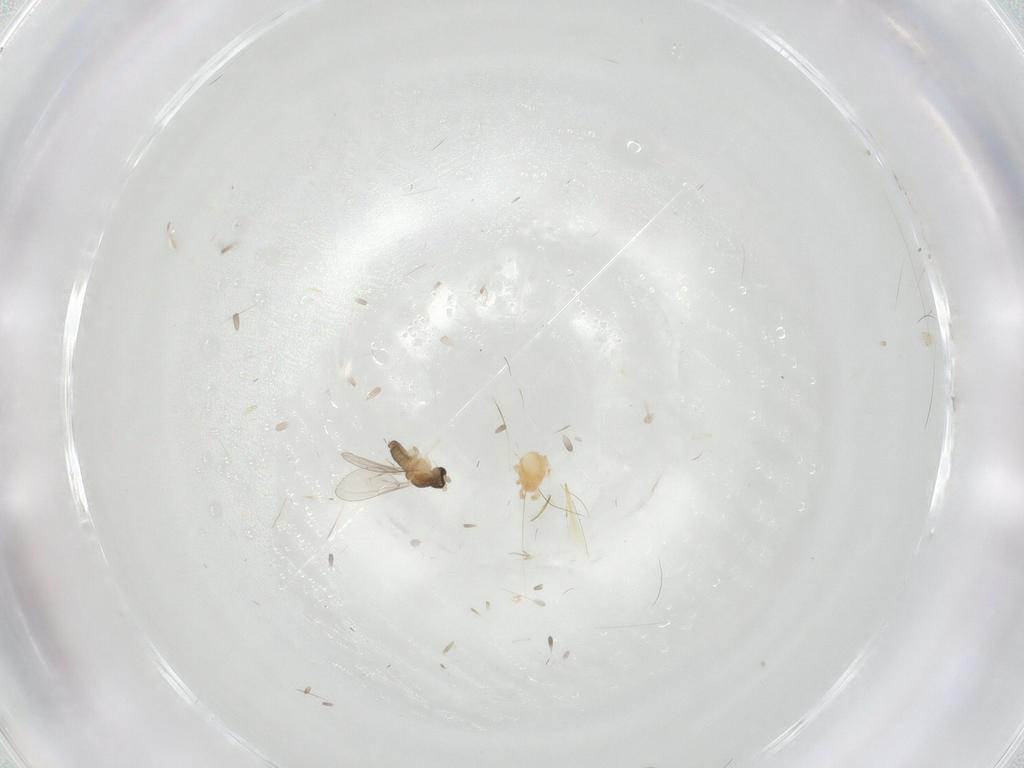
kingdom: Animalia
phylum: Arthropoda
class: Insecta
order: Diptera
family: Cecidomyiidae
